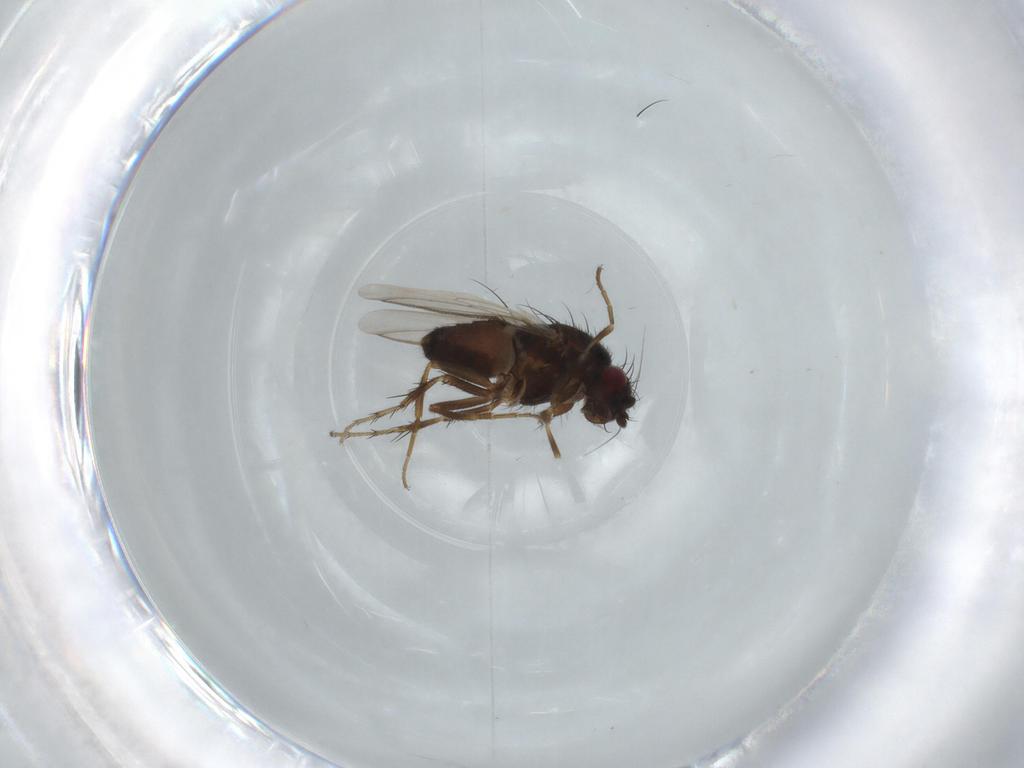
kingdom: Animalia
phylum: Arthropoda
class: Insecta
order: Diptera
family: Sphaeroceridae
